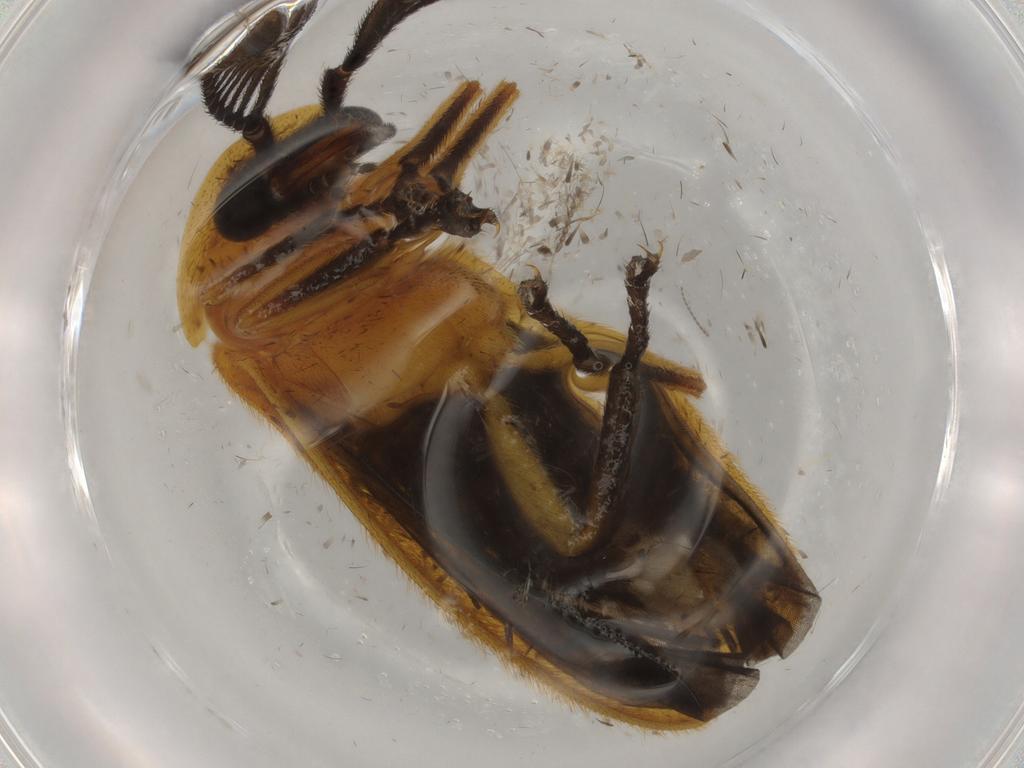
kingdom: Animalia
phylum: Arthropoda
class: Insecta
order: Coleoptera
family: Lampyridae
